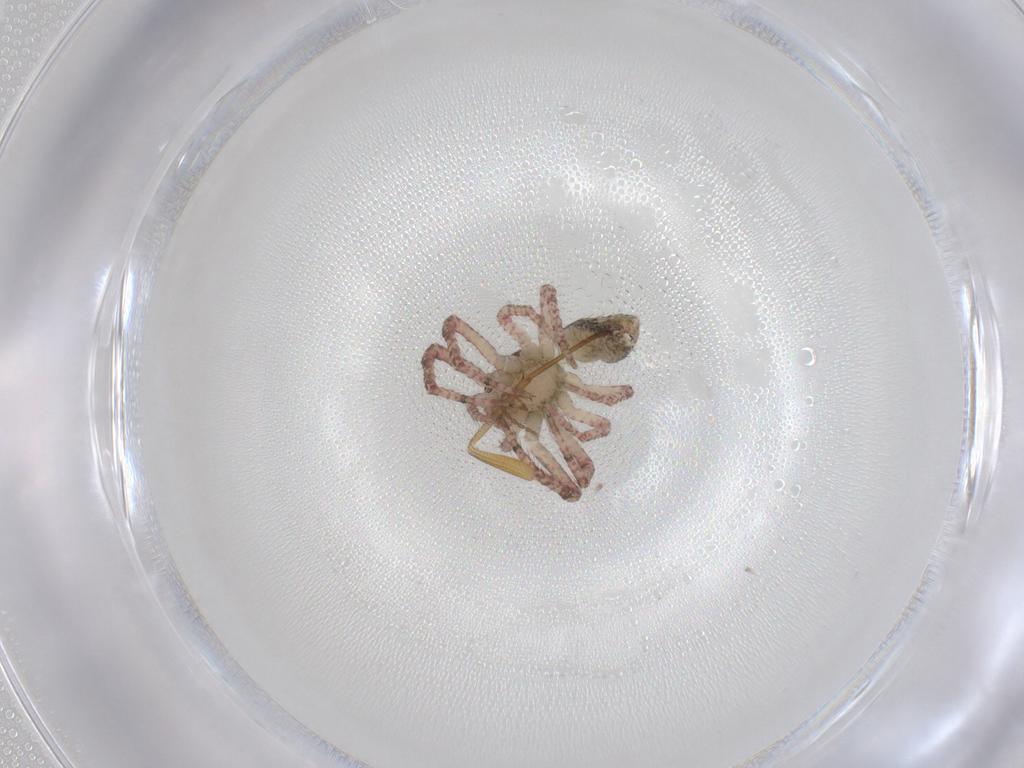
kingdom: Animalia
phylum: Arthropoda
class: Arachnida
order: Araneae
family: Thomisidae
